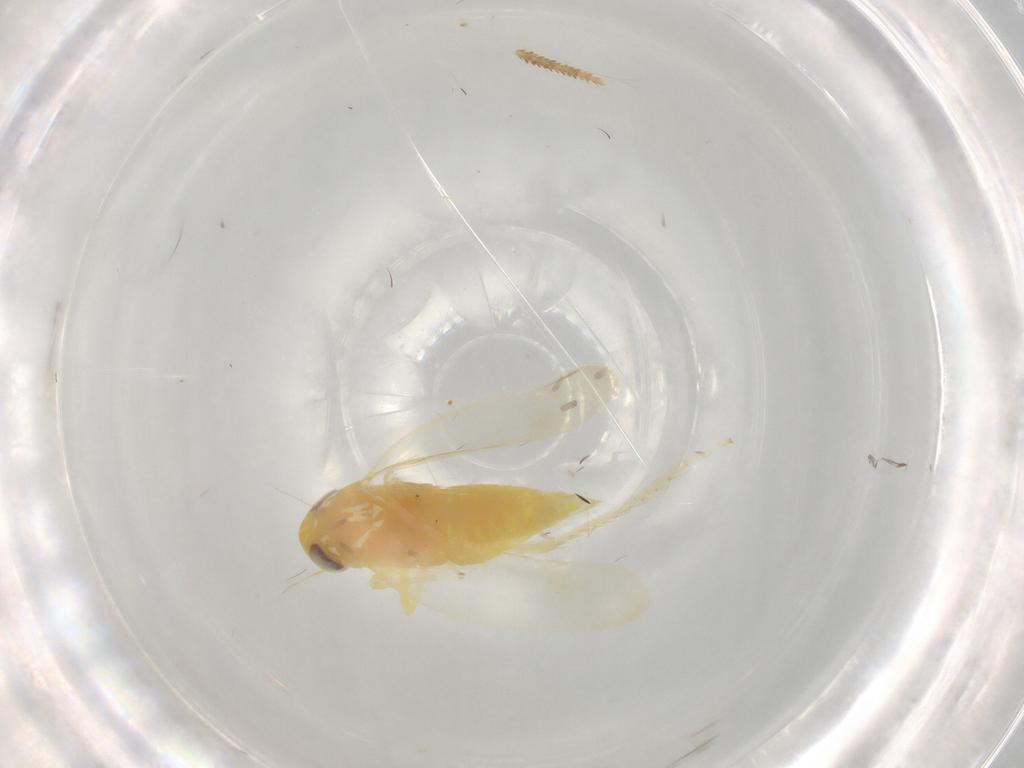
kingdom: Animalia
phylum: Arthropoda
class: Insecta
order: Hemiptera
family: Cicadellidae
